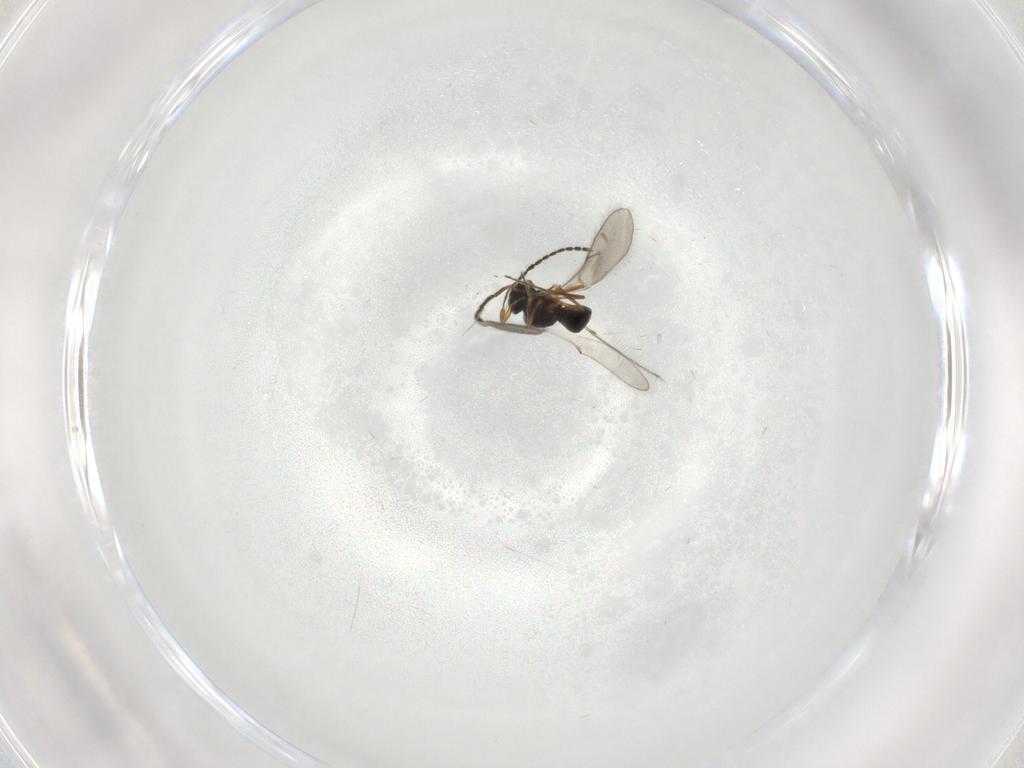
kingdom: Animalia
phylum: Arthropoda
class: Insecta
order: Hymenoptera
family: Scelionidae
